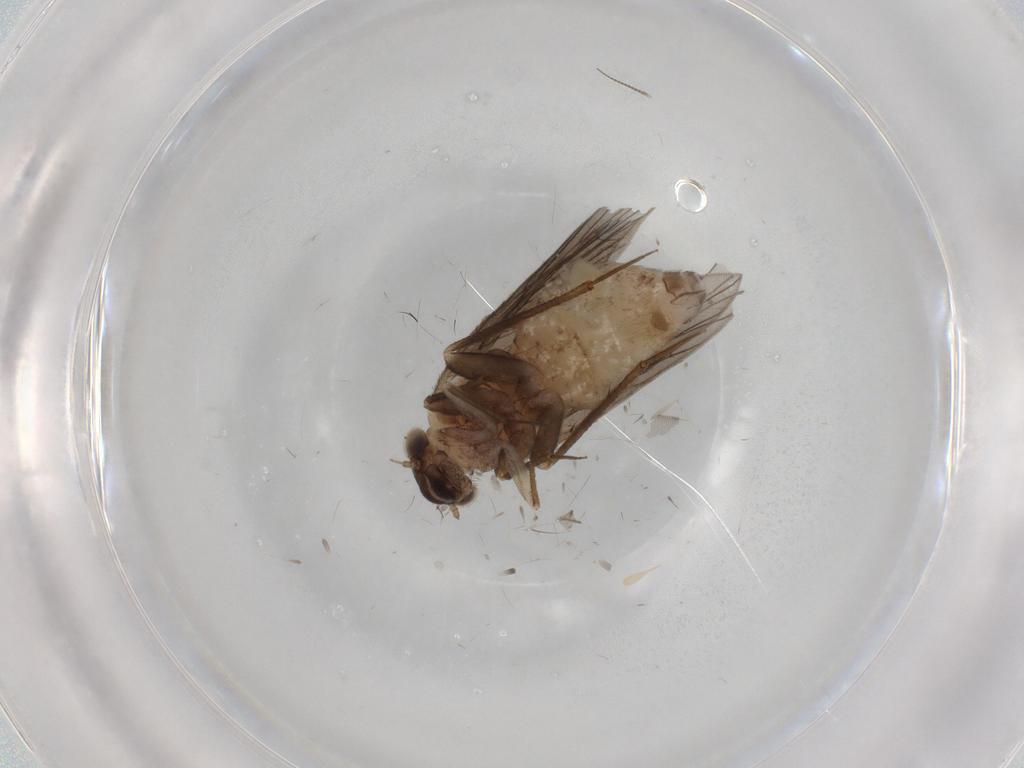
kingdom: Animalia
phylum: Arthropoda
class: Insecta
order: Psocodea
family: Lepidopsocidae
